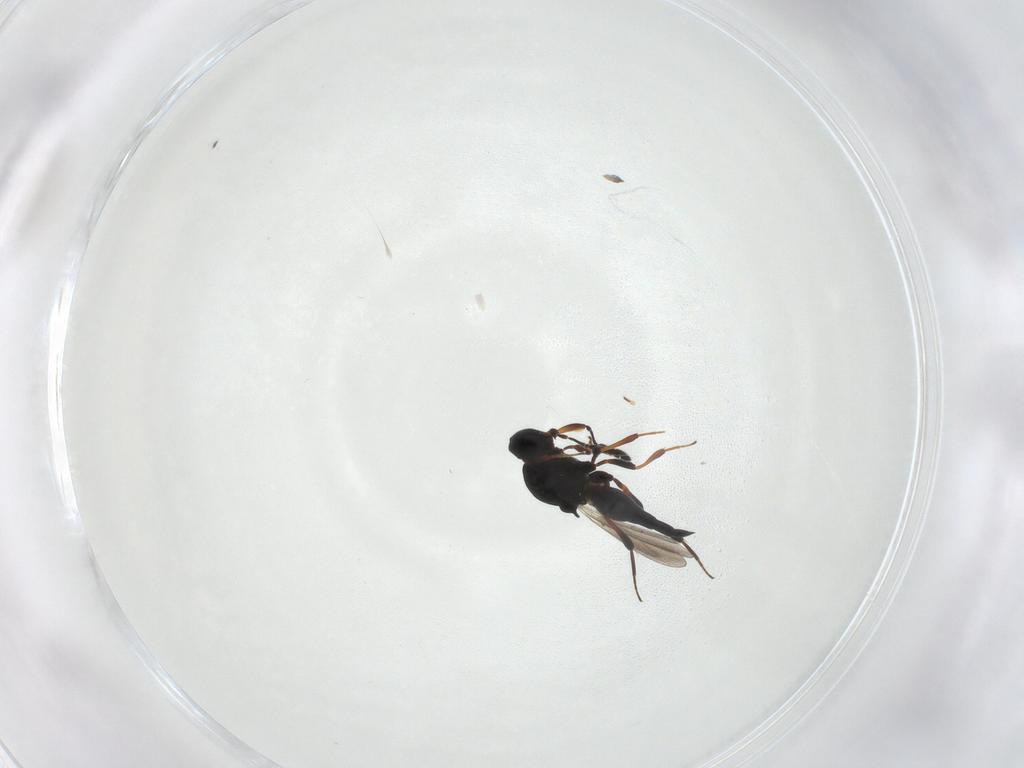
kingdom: Animalia
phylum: Arthropoda
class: Insecta
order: Hymenoptera
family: Platygastridae
